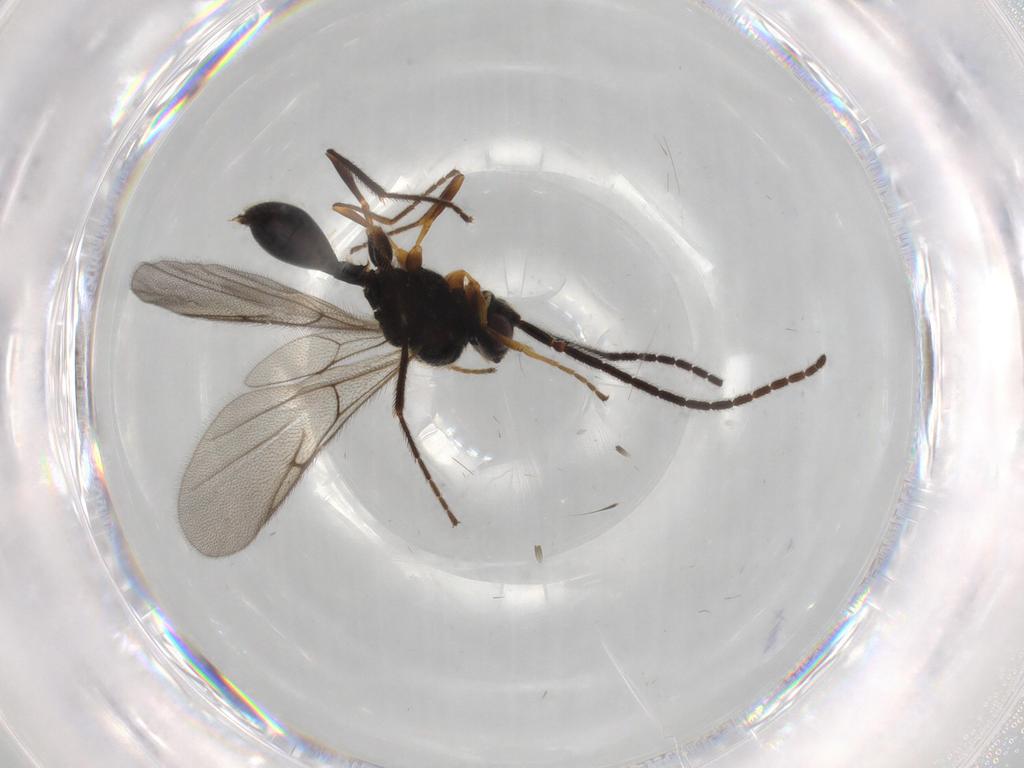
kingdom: Animalia
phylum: Arthropoda
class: Insecta
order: Hymenoptera
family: Diapriidae
